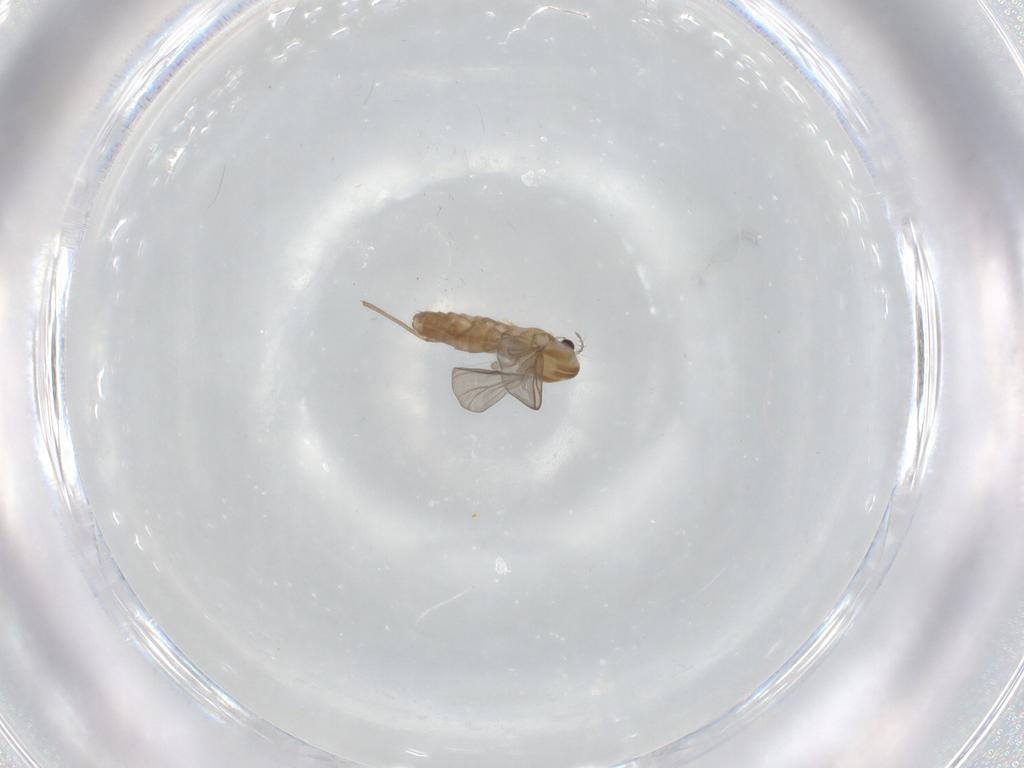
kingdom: Animalia
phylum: Arthropoda
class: Insecta
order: Diptera
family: Chironomidae
